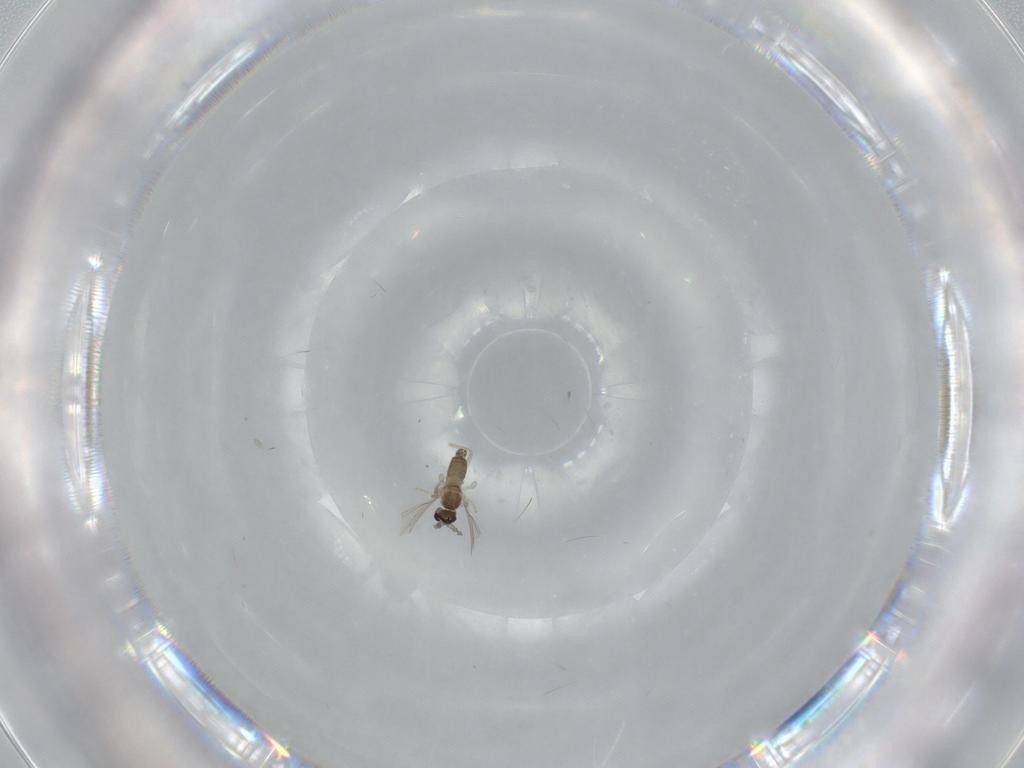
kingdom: Animalia
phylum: Arthropoda
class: Insecta
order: Diptera
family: Cecidomyiidae
